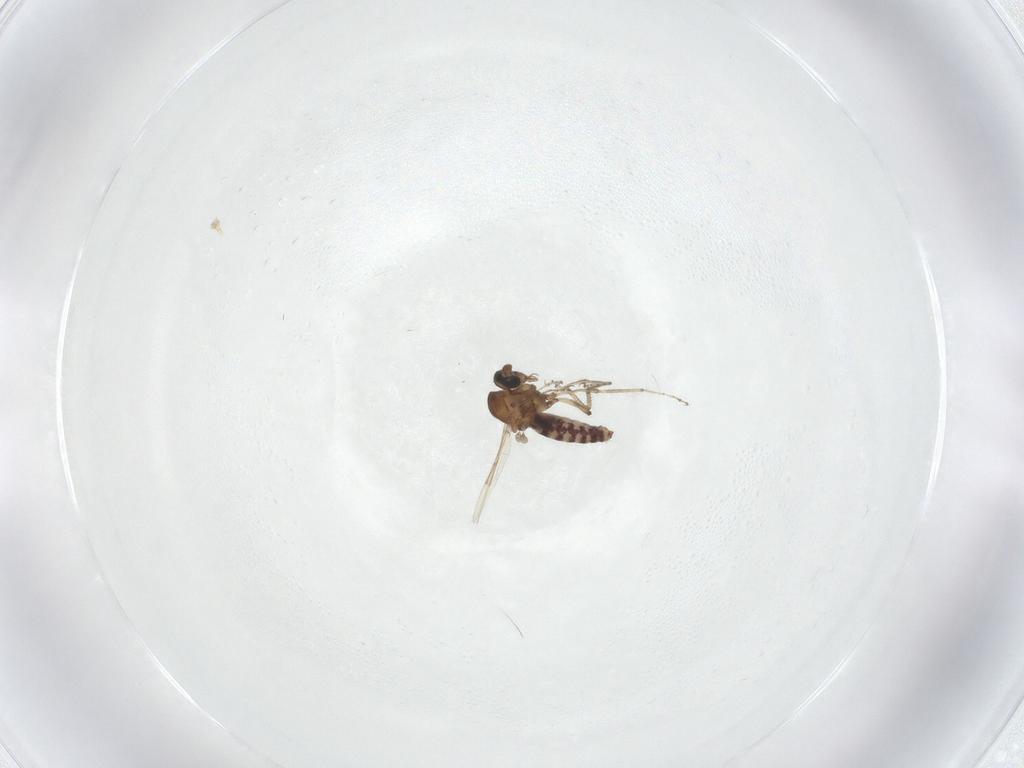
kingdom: Animalia
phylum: Arthropoda
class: Insecta
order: Diptera
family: Ceratopogonidae
